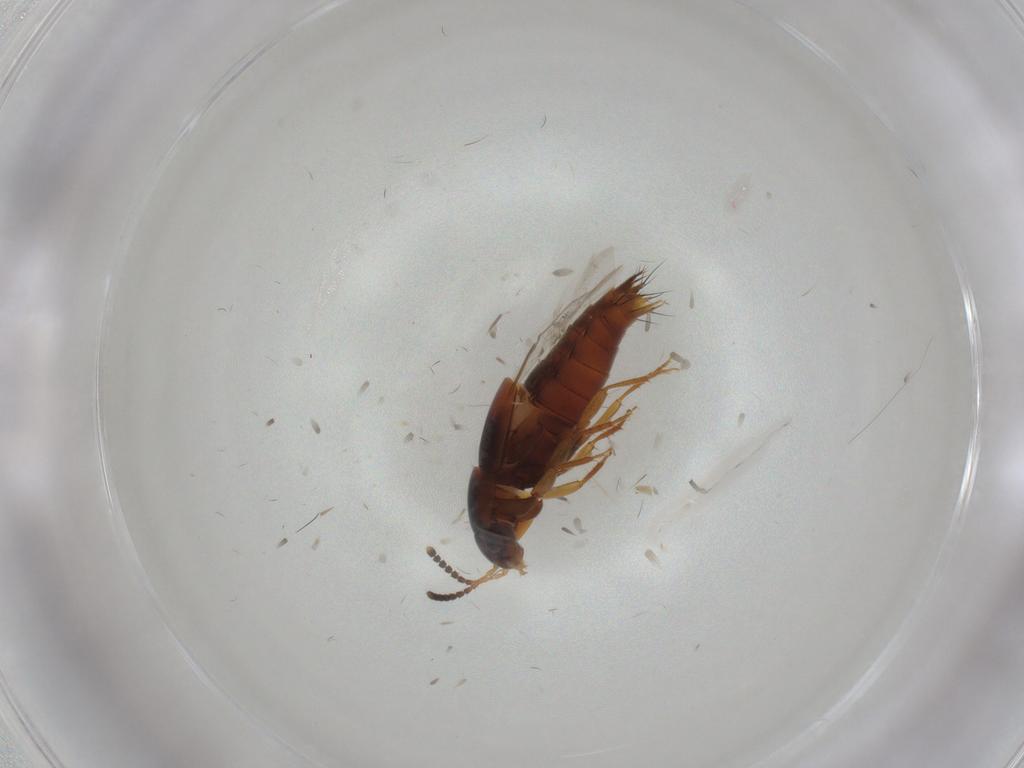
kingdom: Animalia
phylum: Arthropoda
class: Insecta
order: Coleoptera
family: Staphylinidae
